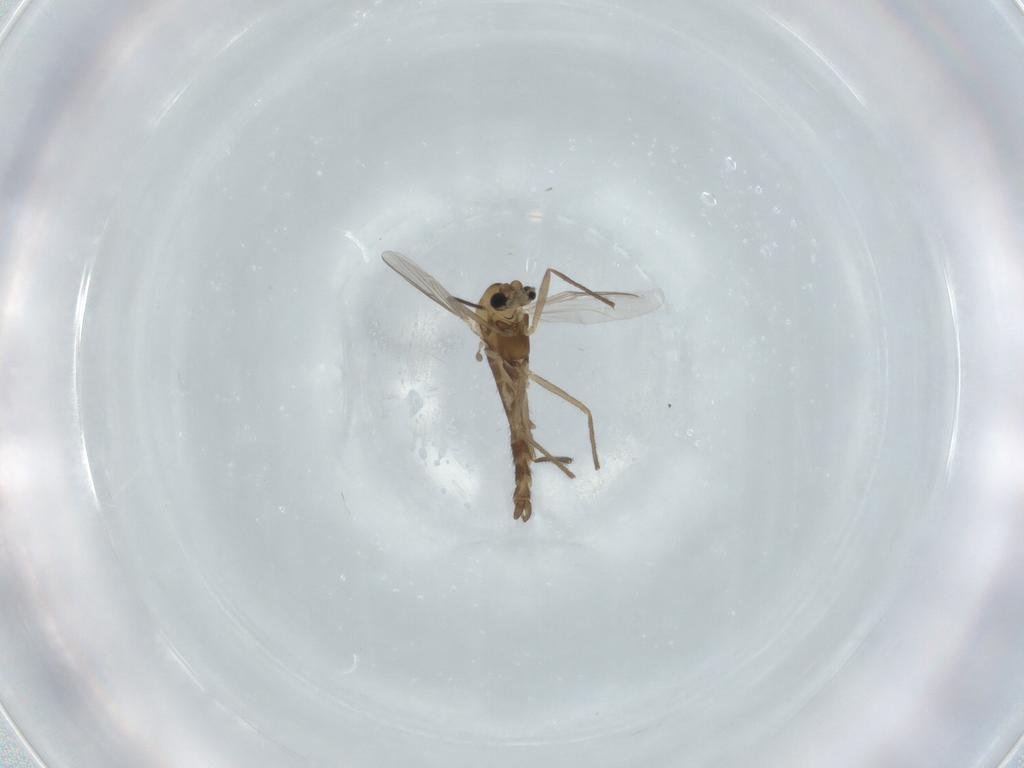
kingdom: Animalia
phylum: Arthropoda
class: Insecta
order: Diptera
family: Chironomidae
